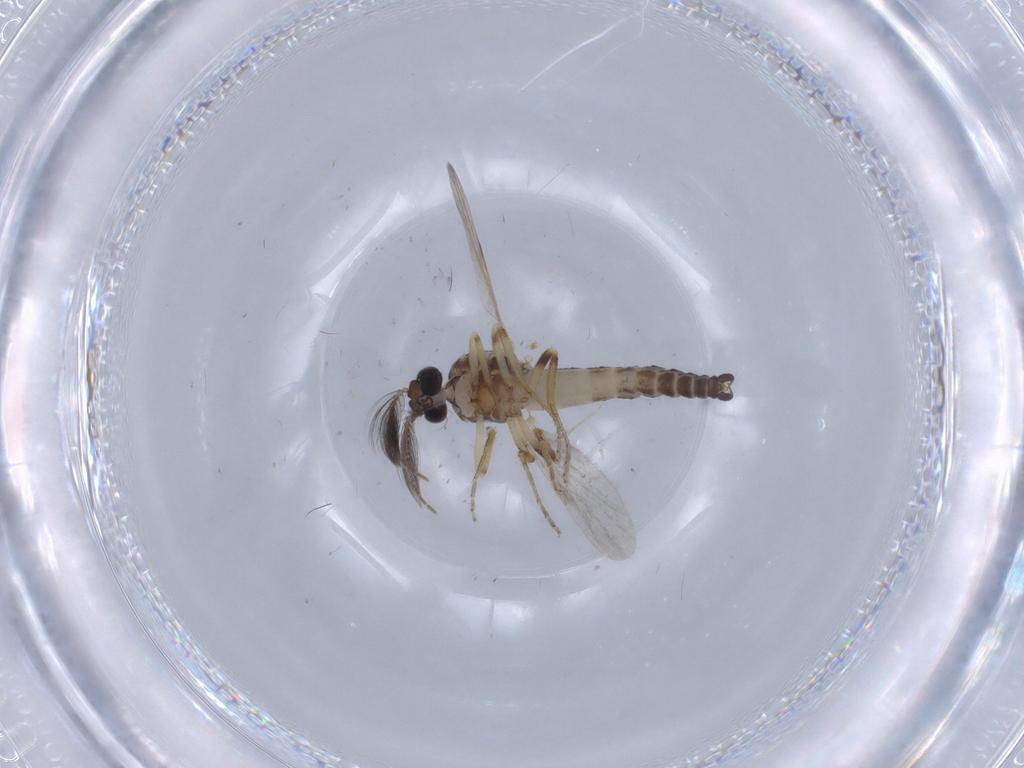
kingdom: Animalia
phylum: Arthropoda
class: Insecta
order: Diptera
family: Ceratopogonidae
